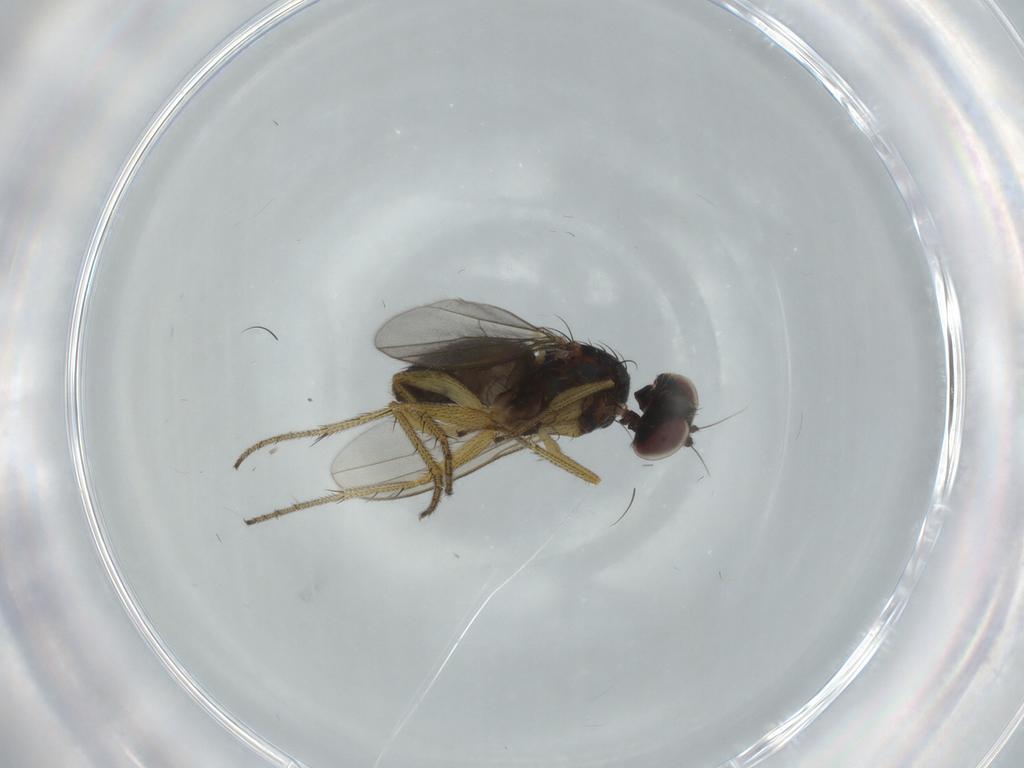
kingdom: Animalia
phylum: Arthropoda
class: Insecta
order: Diptera
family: Dolichopodidae
